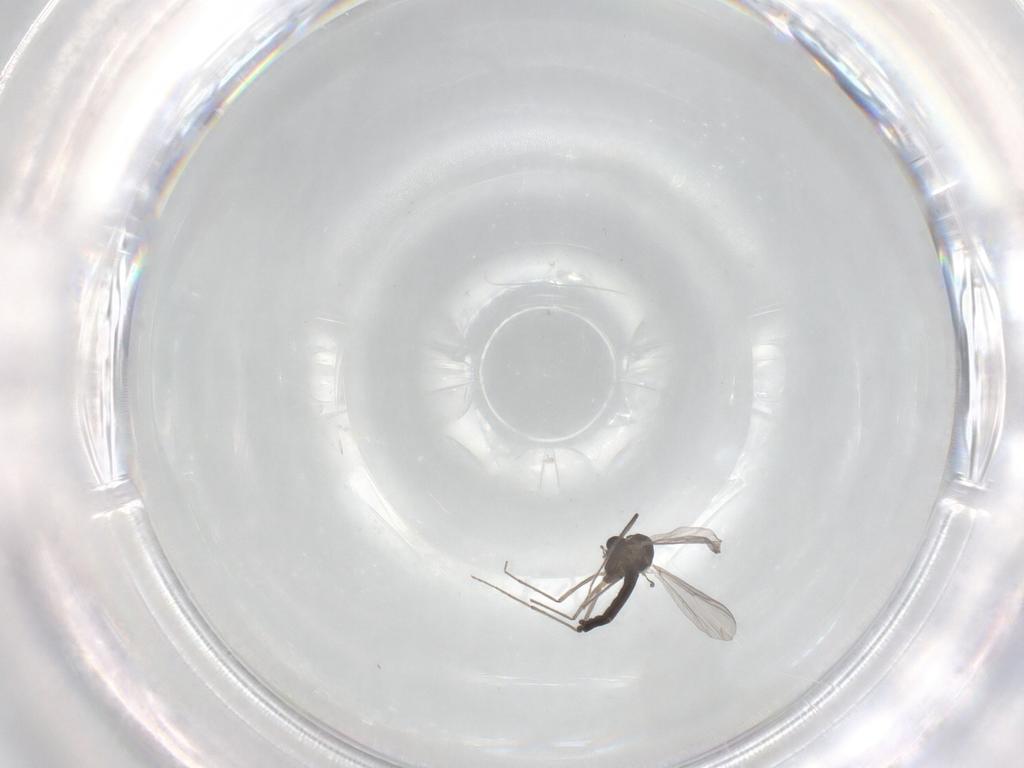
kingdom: Animalia
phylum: Arthropoda
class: Insecta
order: Diptera
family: Chironomidae
